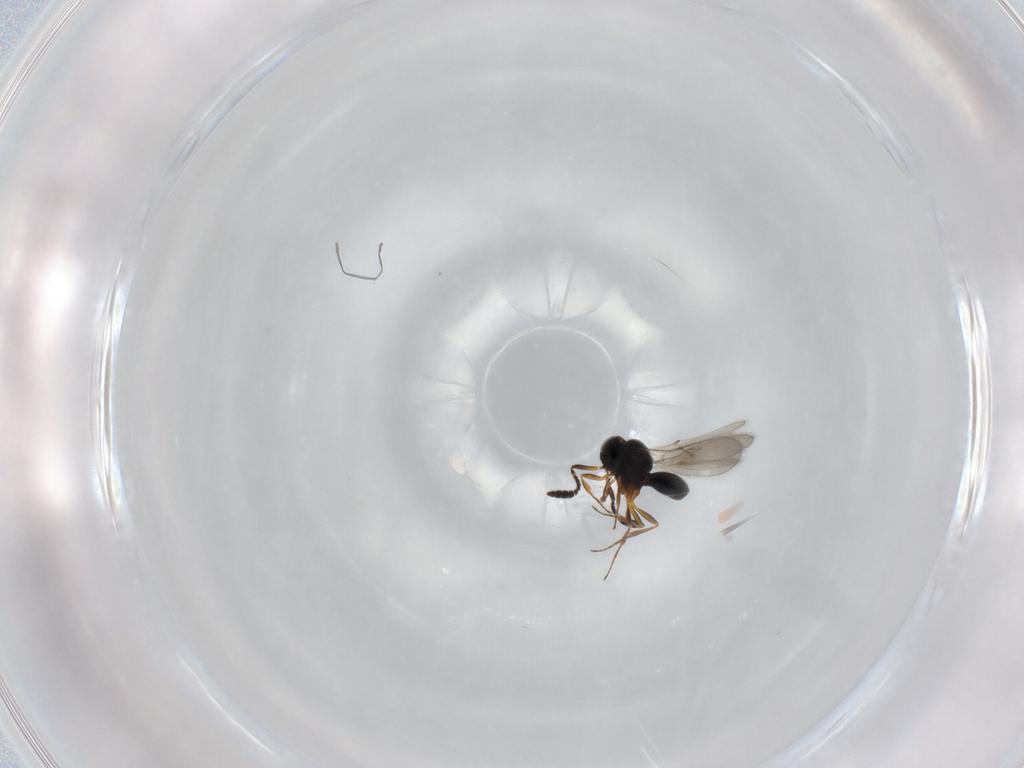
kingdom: Animalia
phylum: Arthropoda
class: Insecta
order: Hymenoptera
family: Scelionidae
